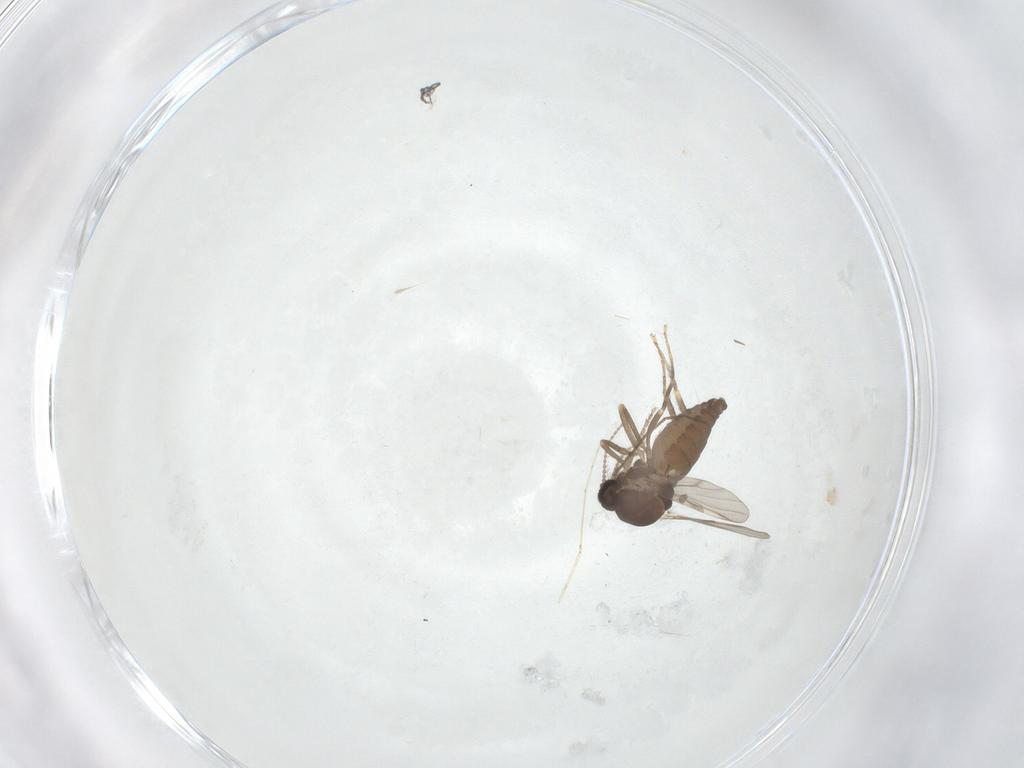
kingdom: Animalia
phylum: Arthropoda
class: Insecta
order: Diptera
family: Ceratopogonidae
